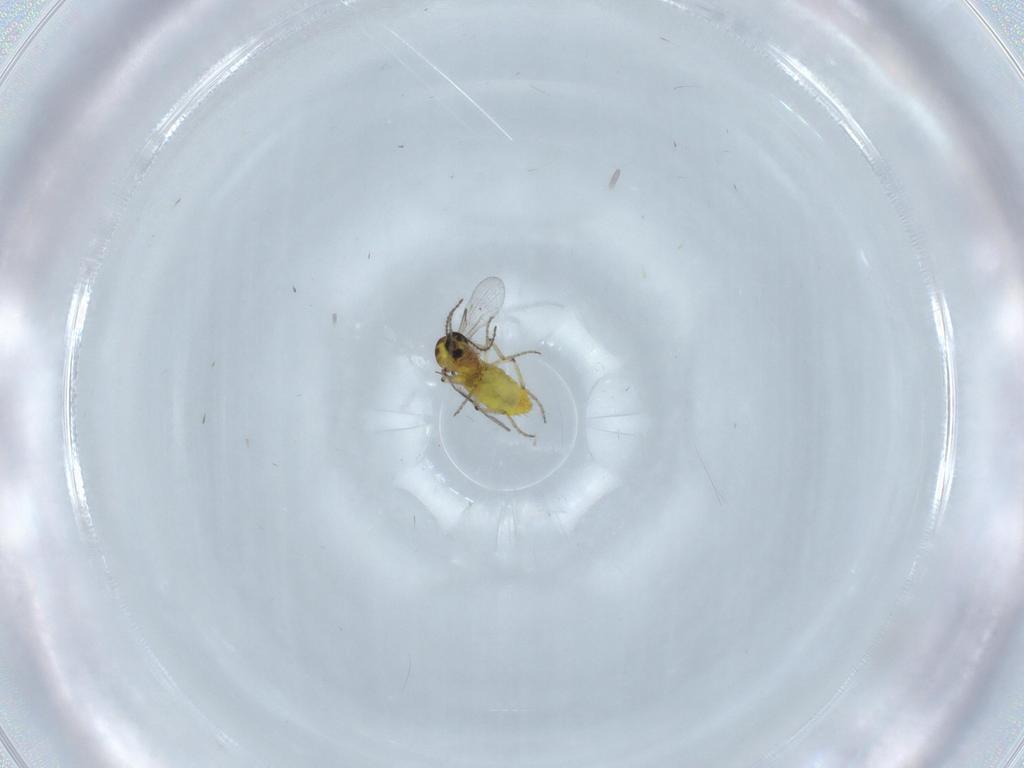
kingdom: Animalia
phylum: Arthropoda
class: Insecta
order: Diptera
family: Ceratopogonidae
